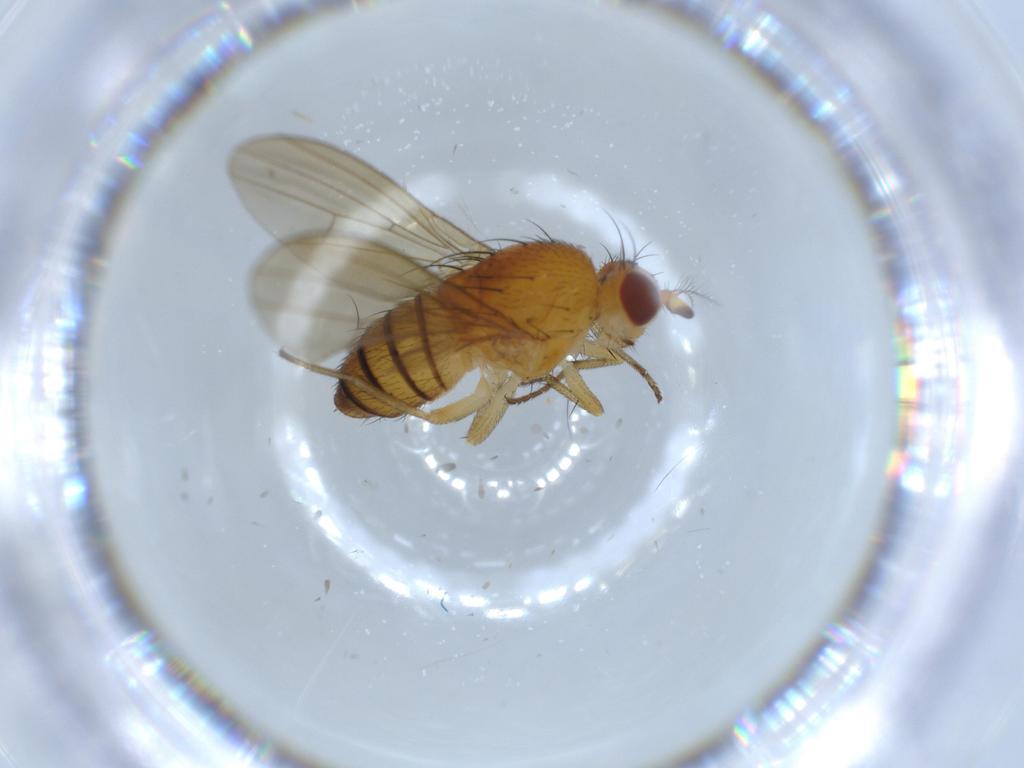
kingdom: Animalia
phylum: Arthropoda
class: Insecta
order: Diptera
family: Lauxaniidae
